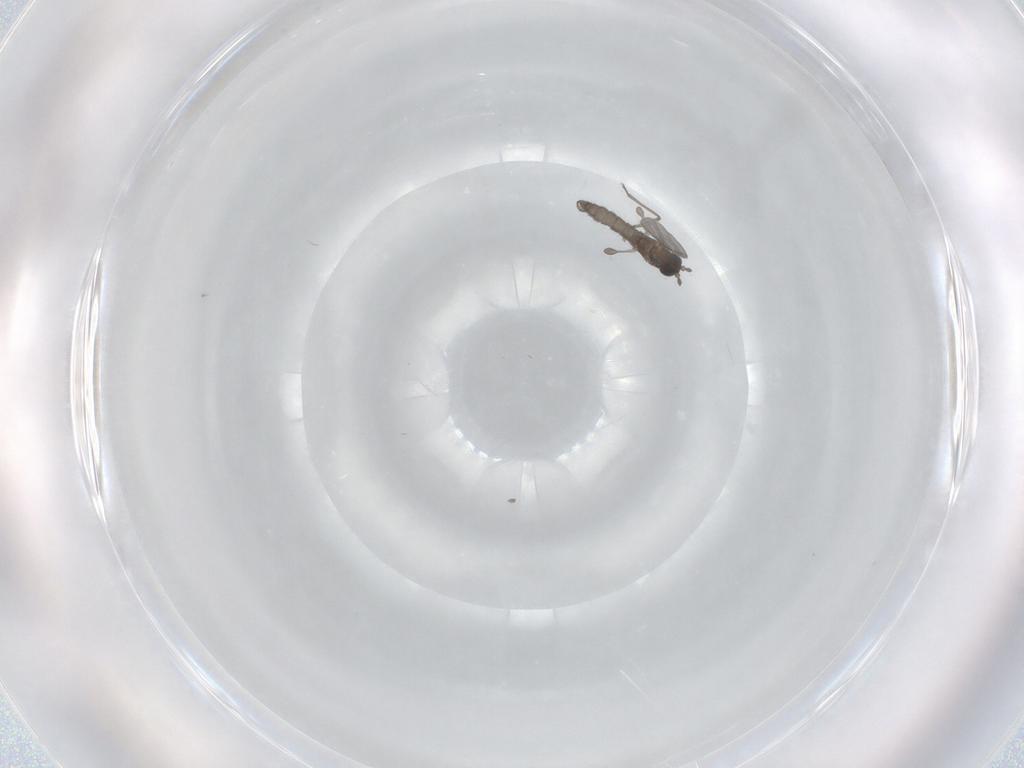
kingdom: Animalia
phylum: Arthropoda
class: Insecta
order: Diptera
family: Sciaridae
